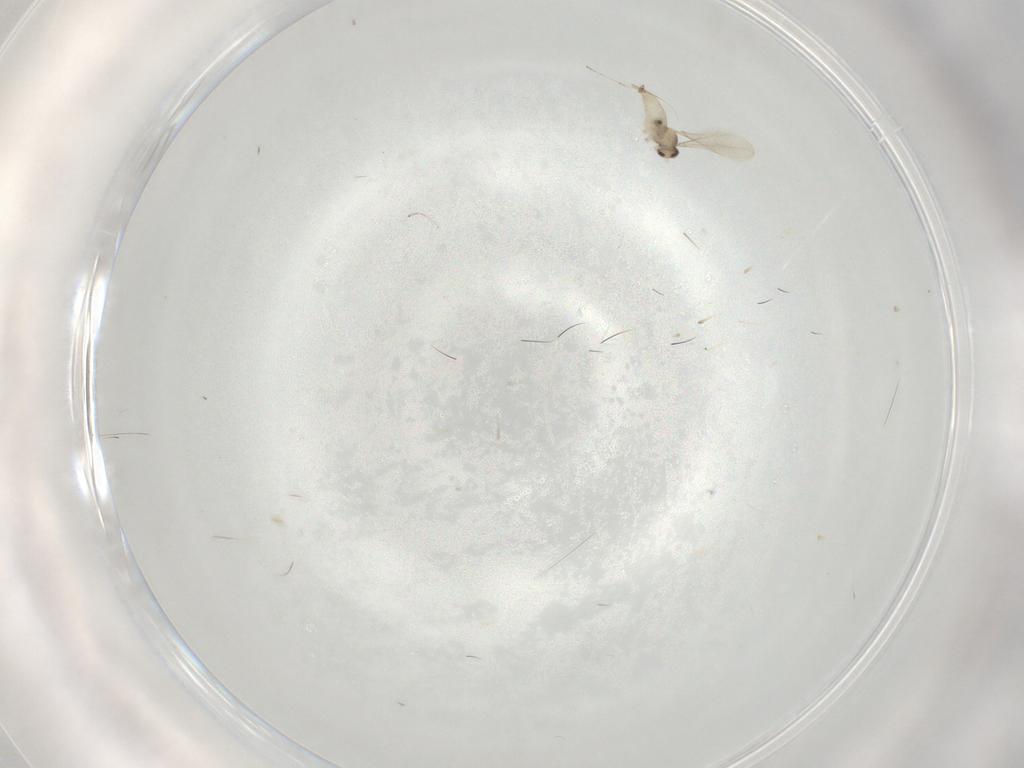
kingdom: Animalia
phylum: Arthropoda
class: Insecta
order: Diptera
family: Cecidomyiidae
